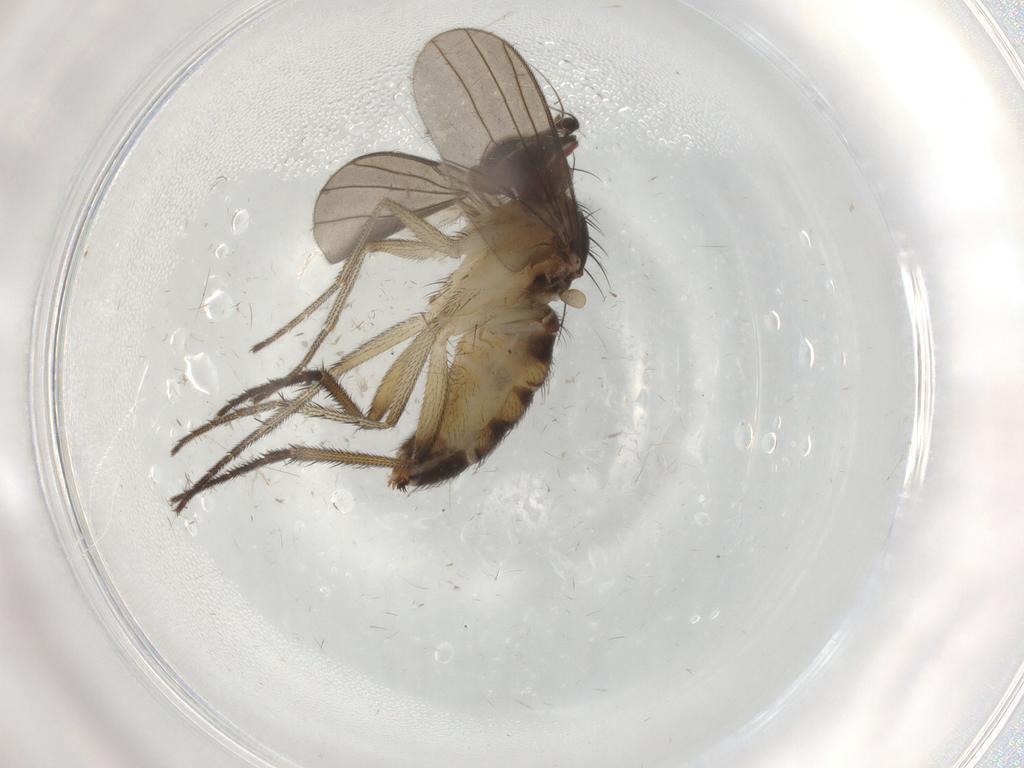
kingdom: Animalia
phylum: Arthropoda
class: Insecta
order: Diptera
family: Dolichopodidae
